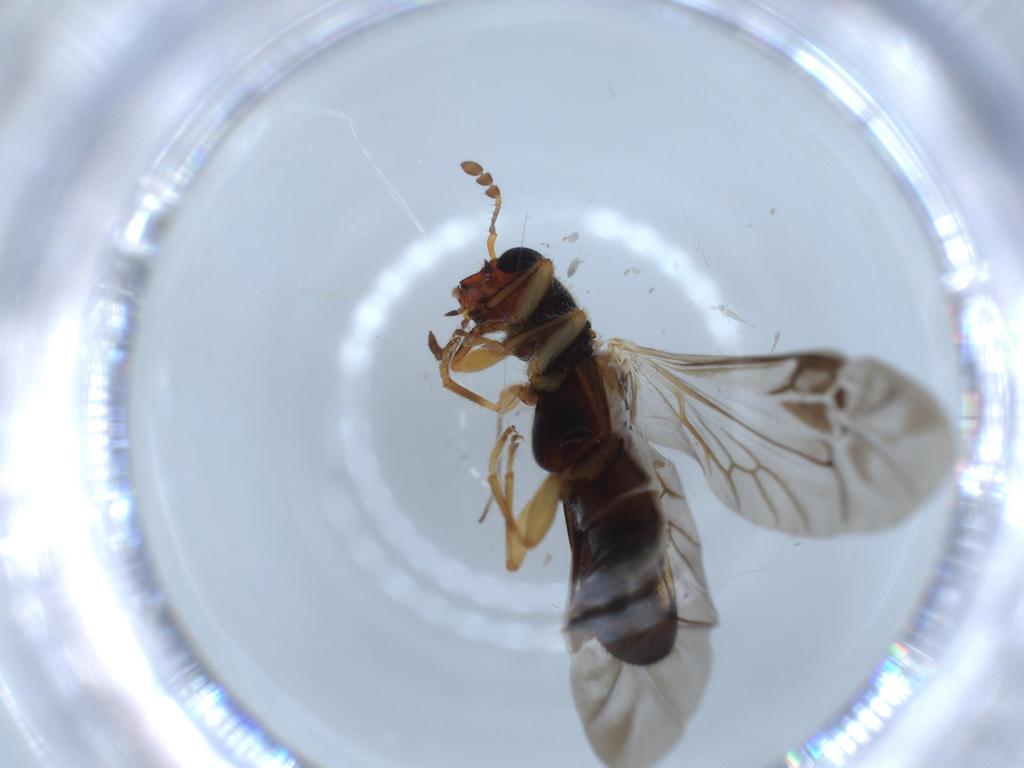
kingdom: Animalia
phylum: Arthropoda
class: Insecta
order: Coleoptera
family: Cleridae
